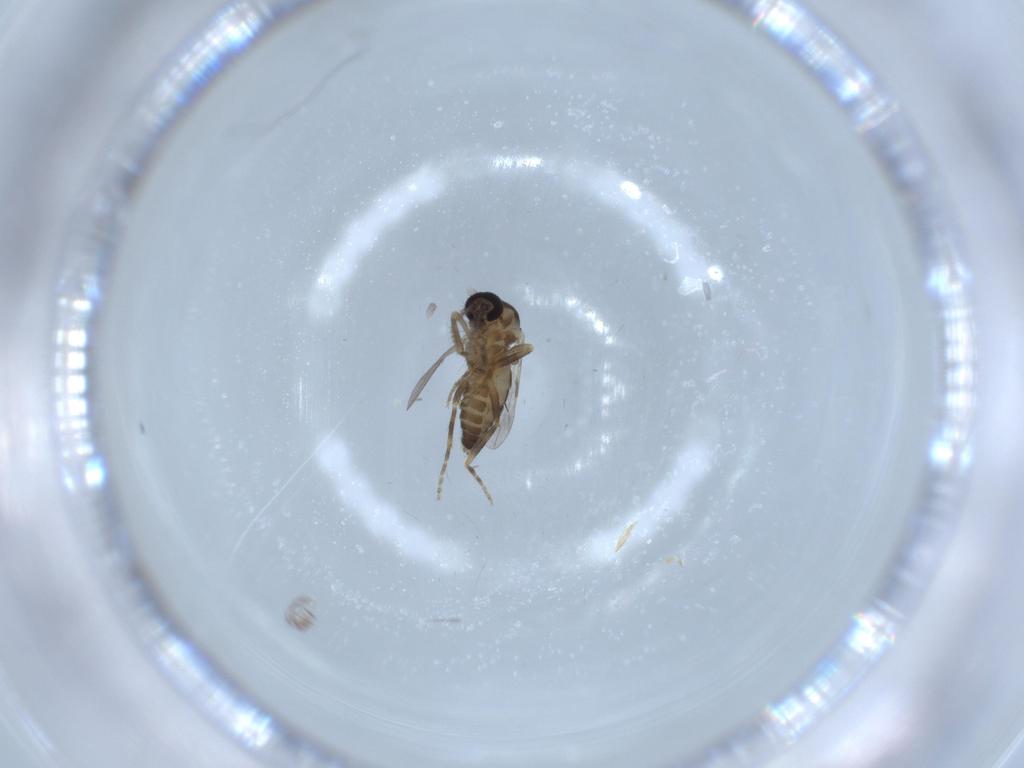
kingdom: Animalia
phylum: Arthropoda
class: Insecta
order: Diptera
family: Ceratopogonidae
